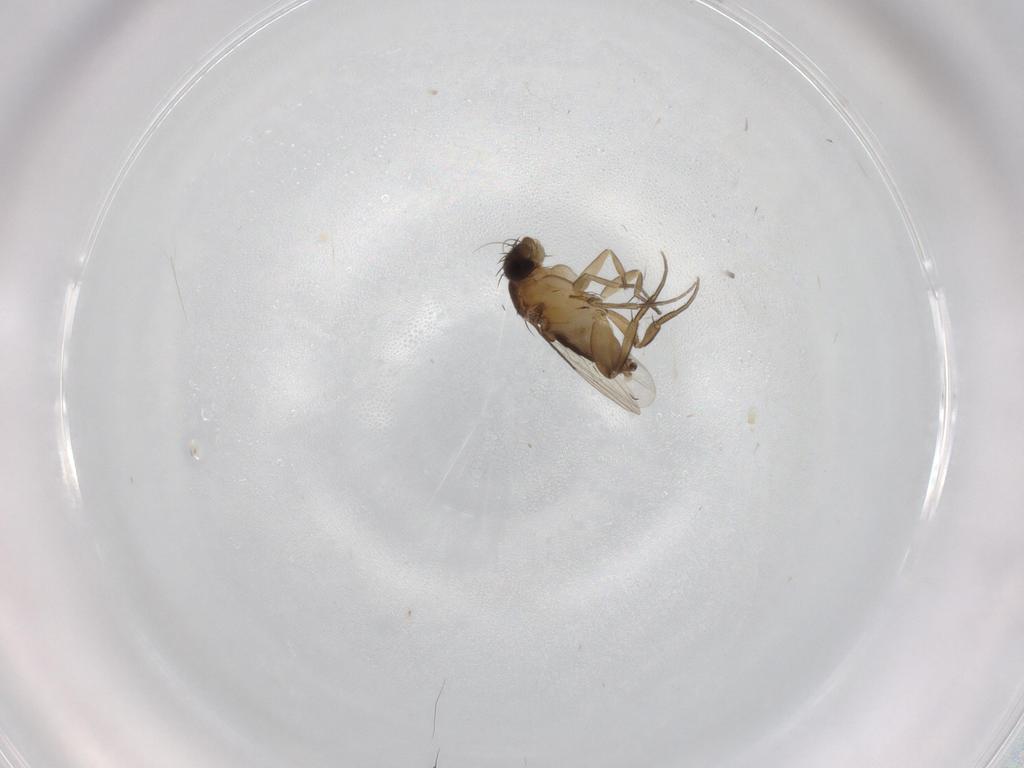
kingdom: Animalia
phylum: Arthropoda
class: Insecta
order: Diptera
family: Phoridae
